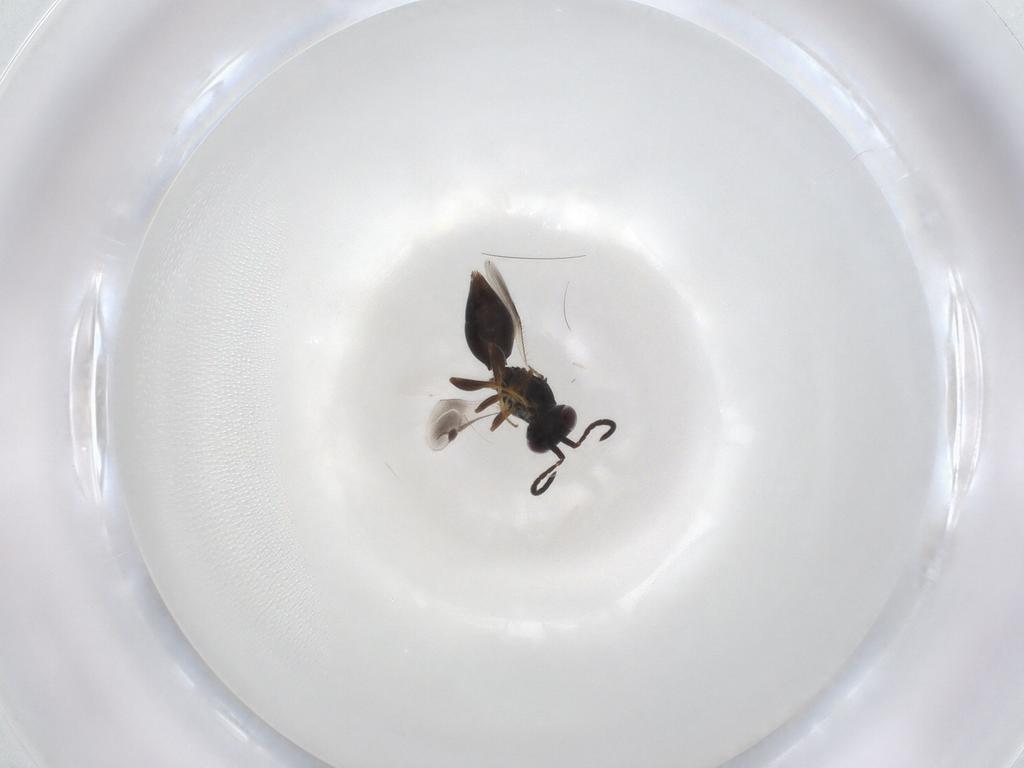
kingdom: Animalia
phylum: Arthropoda
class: Insecta
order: Hymenoptera
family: Megaspilidae
